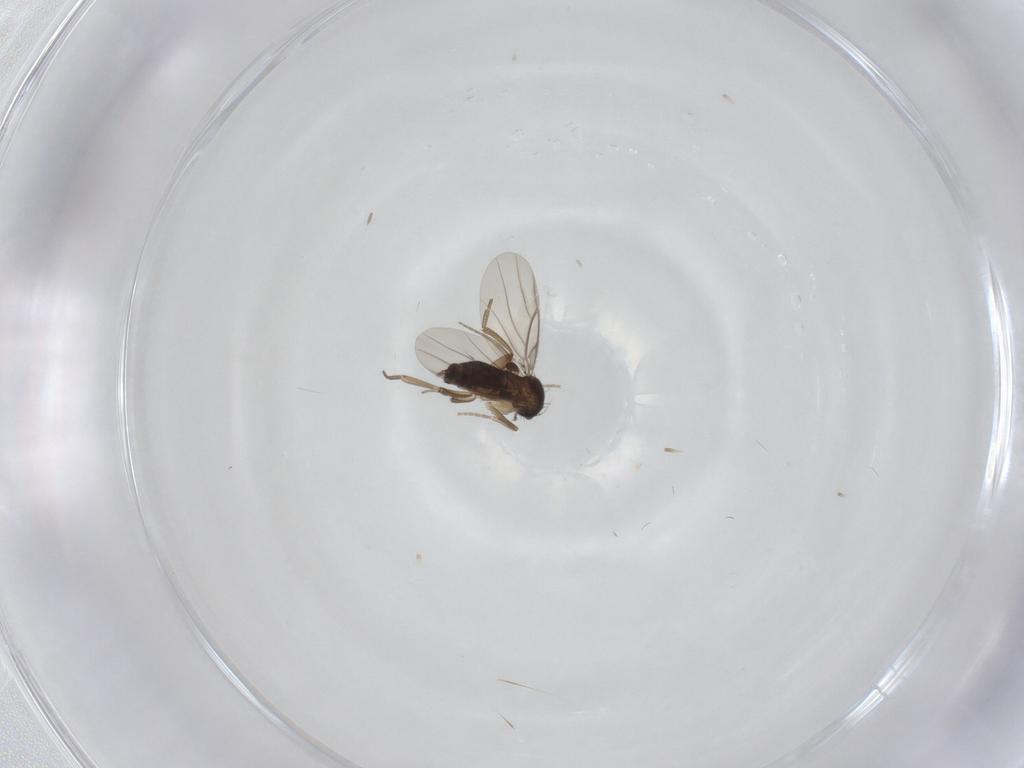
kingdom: Animalia
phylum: Arthropoda
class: Insecta
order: Diptera
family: Phoridae
